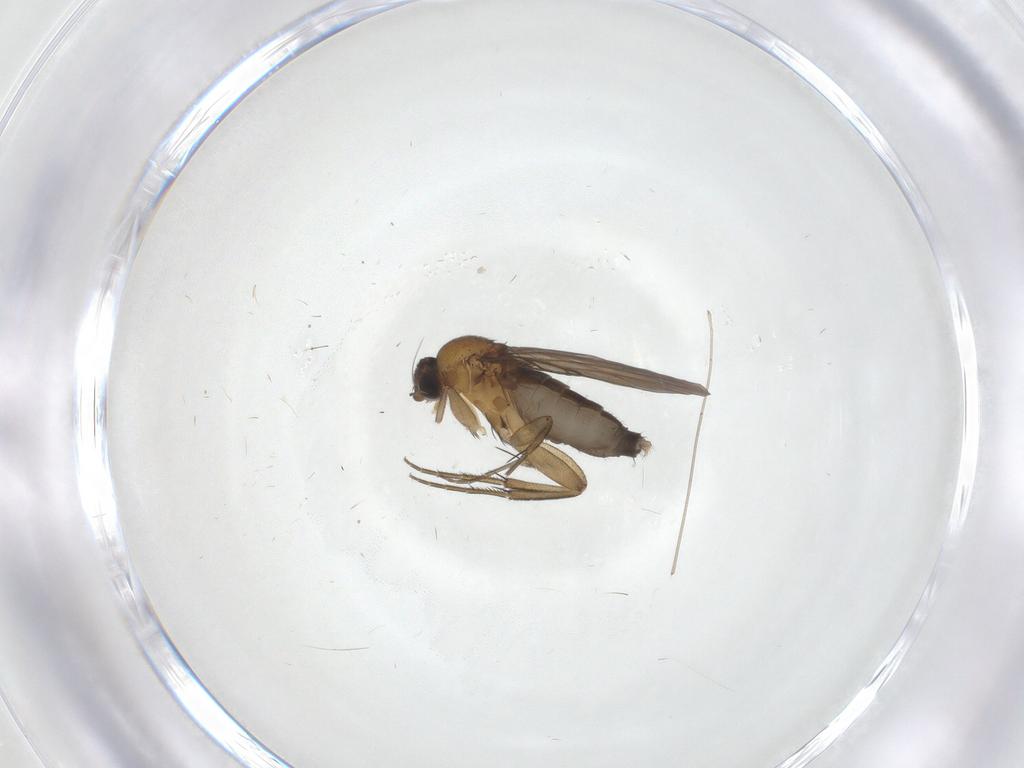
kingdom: Animalia
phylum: Arthropoda
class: Insecta
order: Diptera
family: Phoridae
